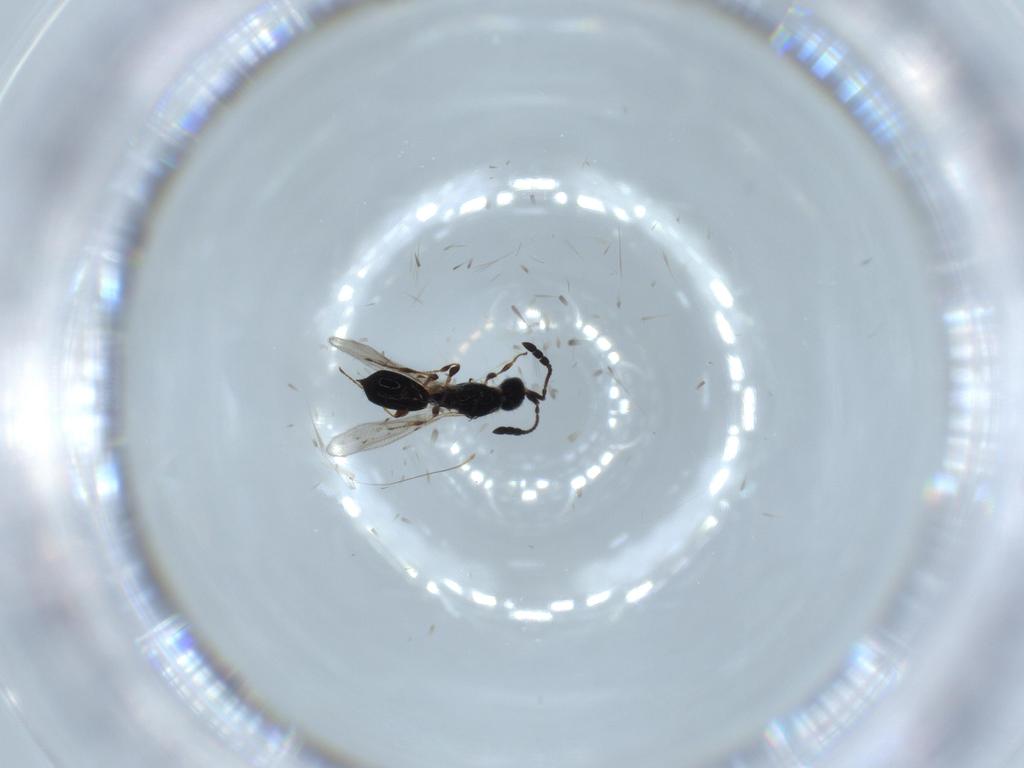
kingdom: Animalia
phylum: Arthropoda
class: Insecta
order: Hymenoptera
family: Diapriidae
